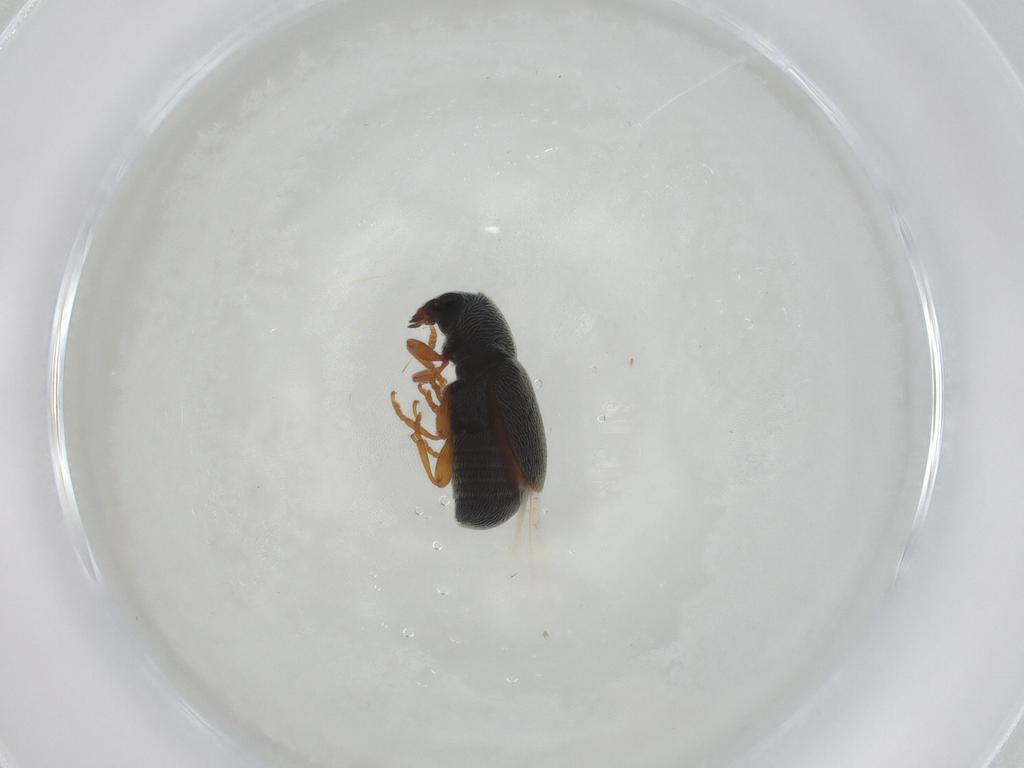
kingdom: Animalia
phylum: Arthropoda
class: Insecta
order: Coleoptera
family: Anthribidae
